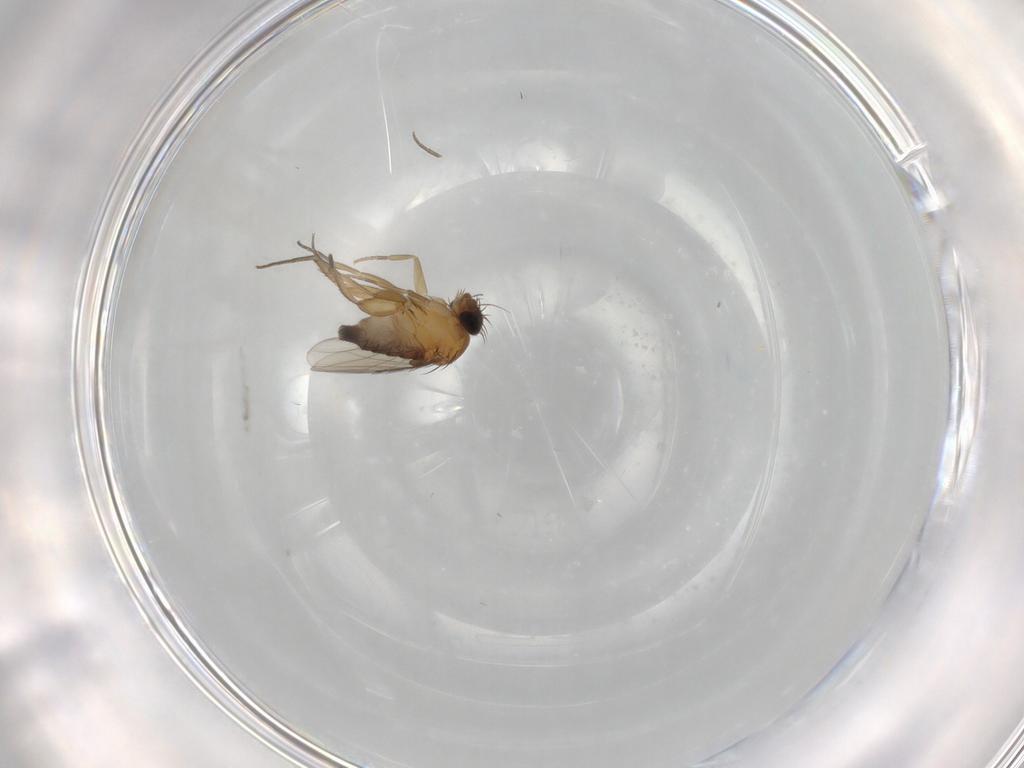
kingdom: Animalia
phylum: Arthropoda
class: Insecta
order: Diptera
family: Phoridae
